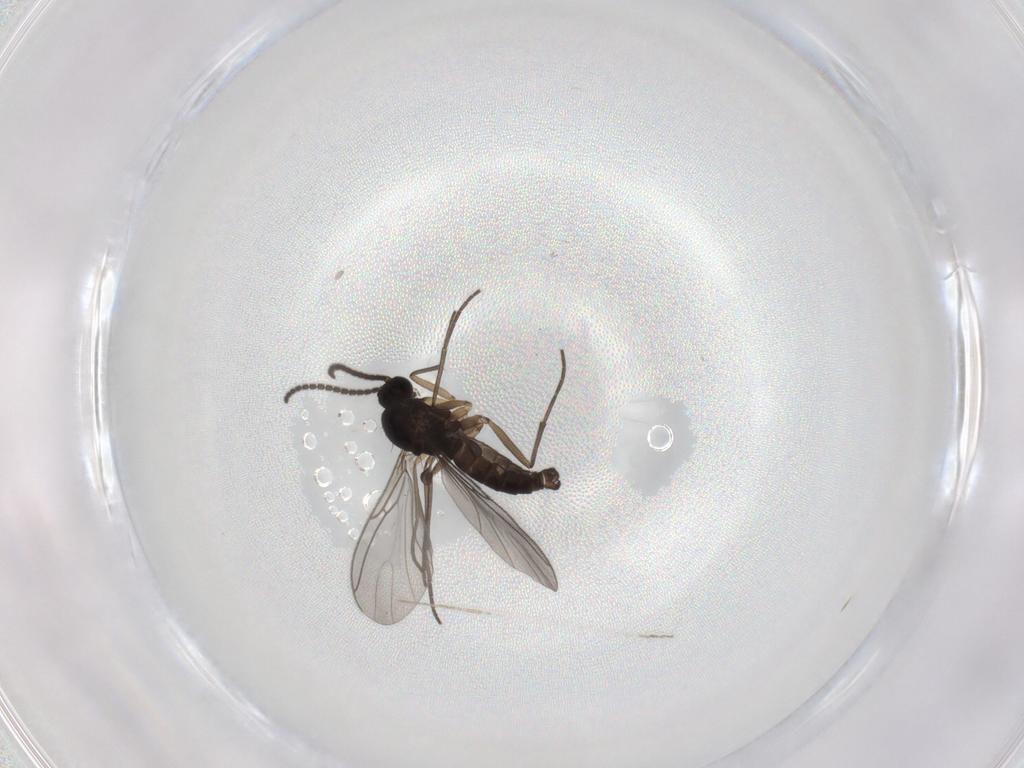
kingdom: Animalia
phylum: Arthropoda
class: Insecta
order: Diptera
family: Sciaridae
